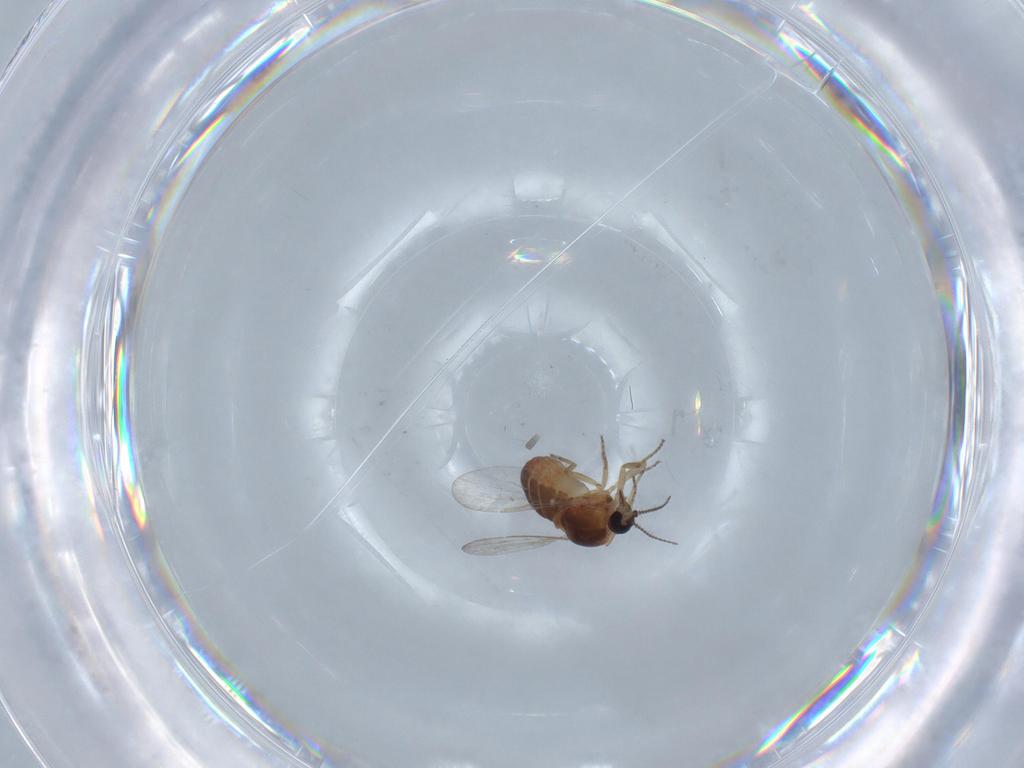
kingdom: Animalia
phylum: Arthropoda
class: Insecta
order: Diptera
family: Ceratopogonidae
